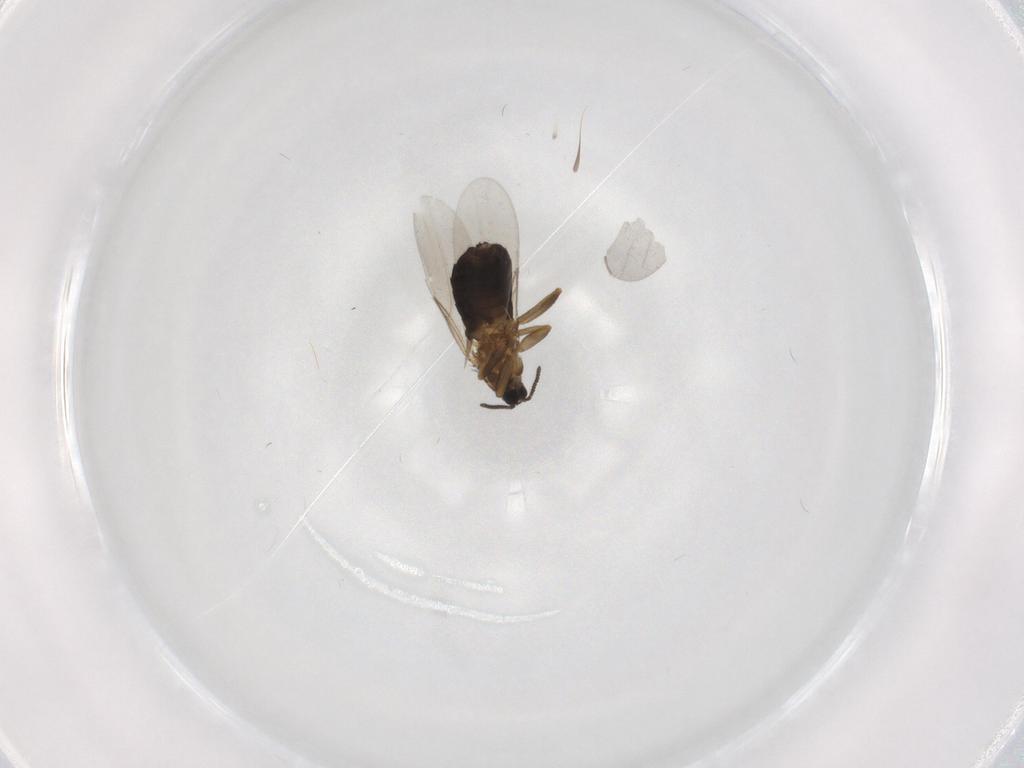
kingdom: Animalia
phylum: Arthropoda
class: Insecta
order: Diptera
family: Scatopsidae
